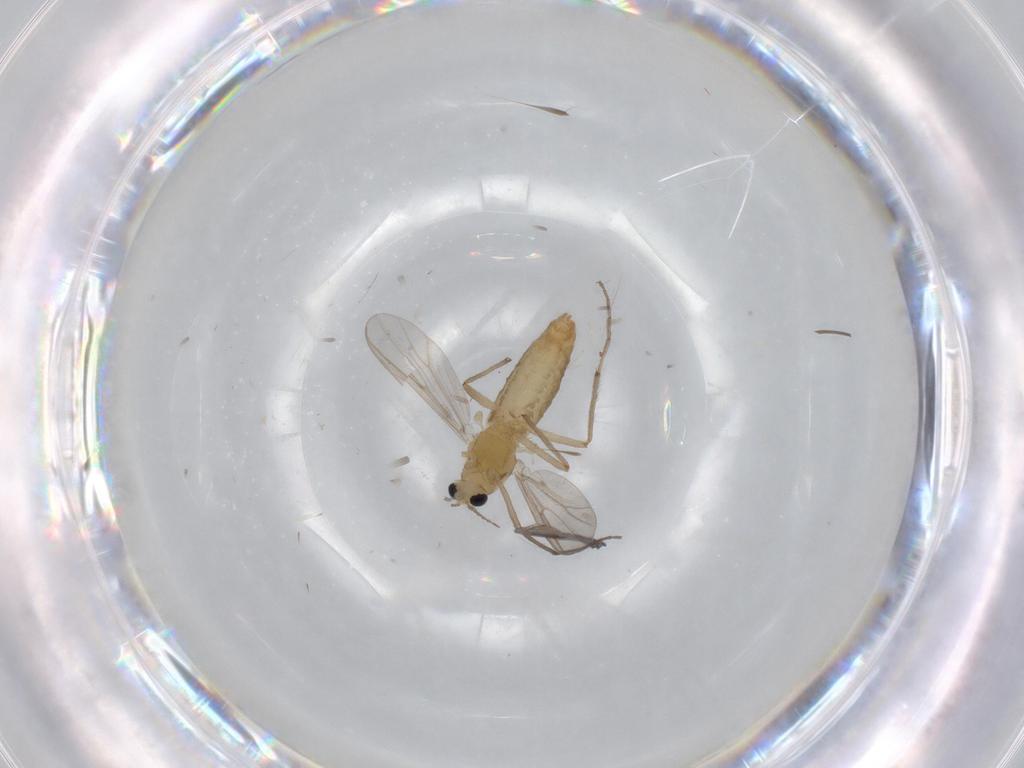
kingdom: Animalia
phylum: Arthropoda
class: Insecta
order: Diptera
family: Chironomidae
